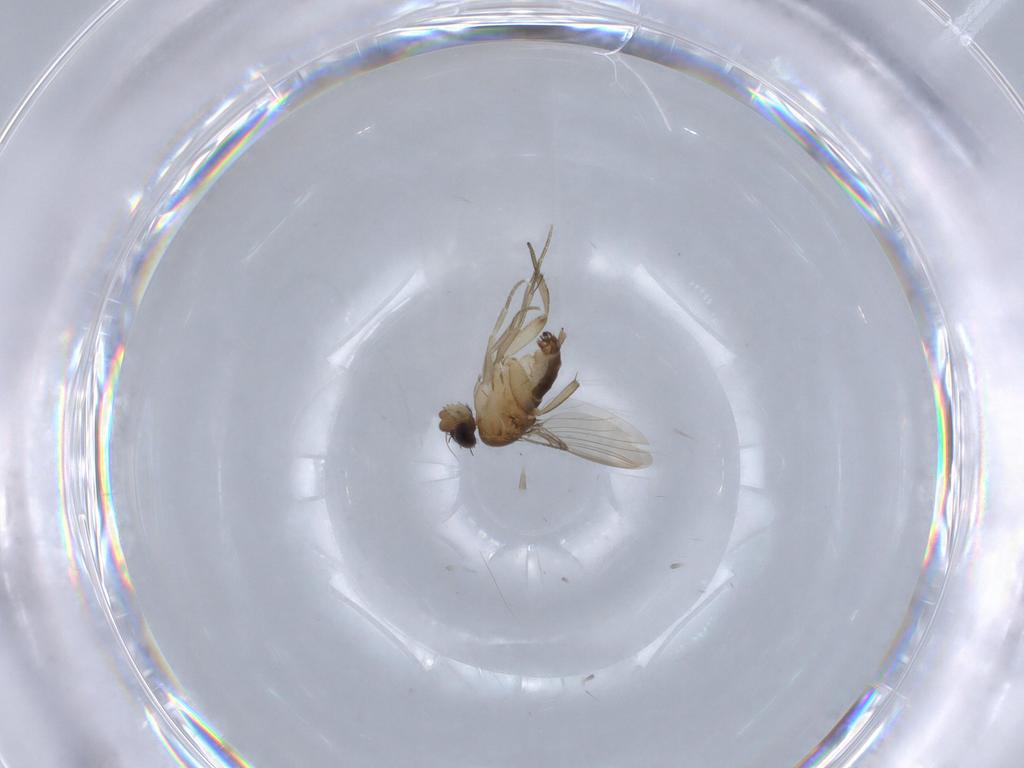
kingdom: Animalia
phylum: Arthropoda
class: Insecta
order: Diptera
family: Phoridae
